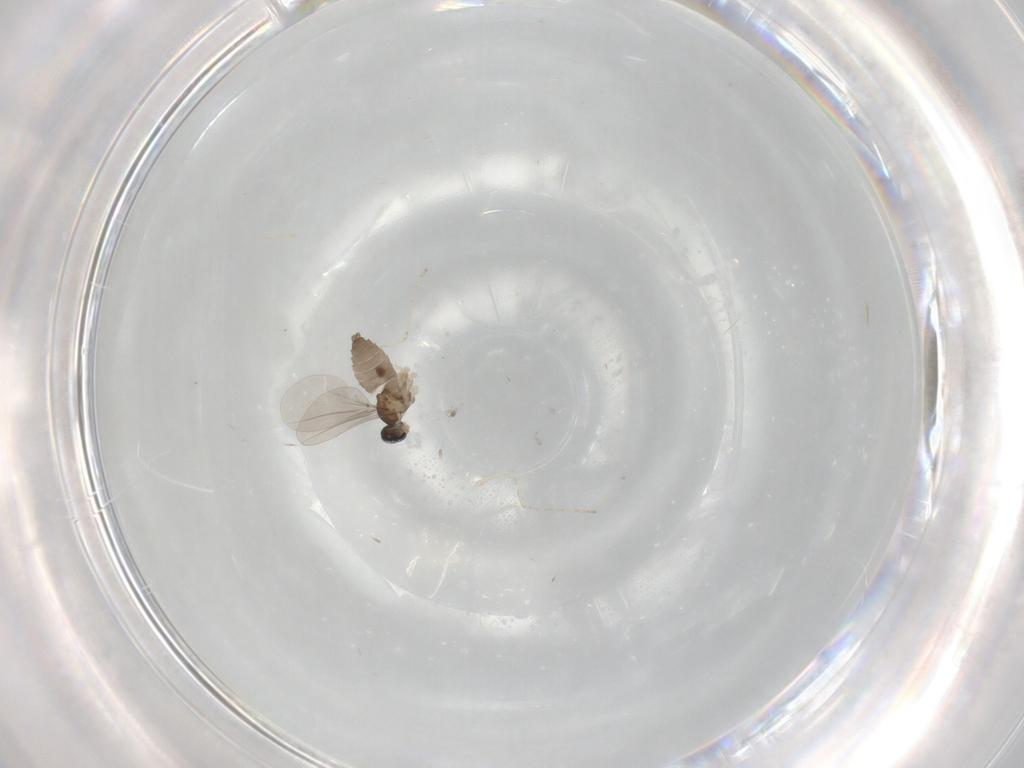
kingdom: Animalia
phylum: Arthropoda
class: Insecta
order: Diptera
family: Cecidomyiidae
